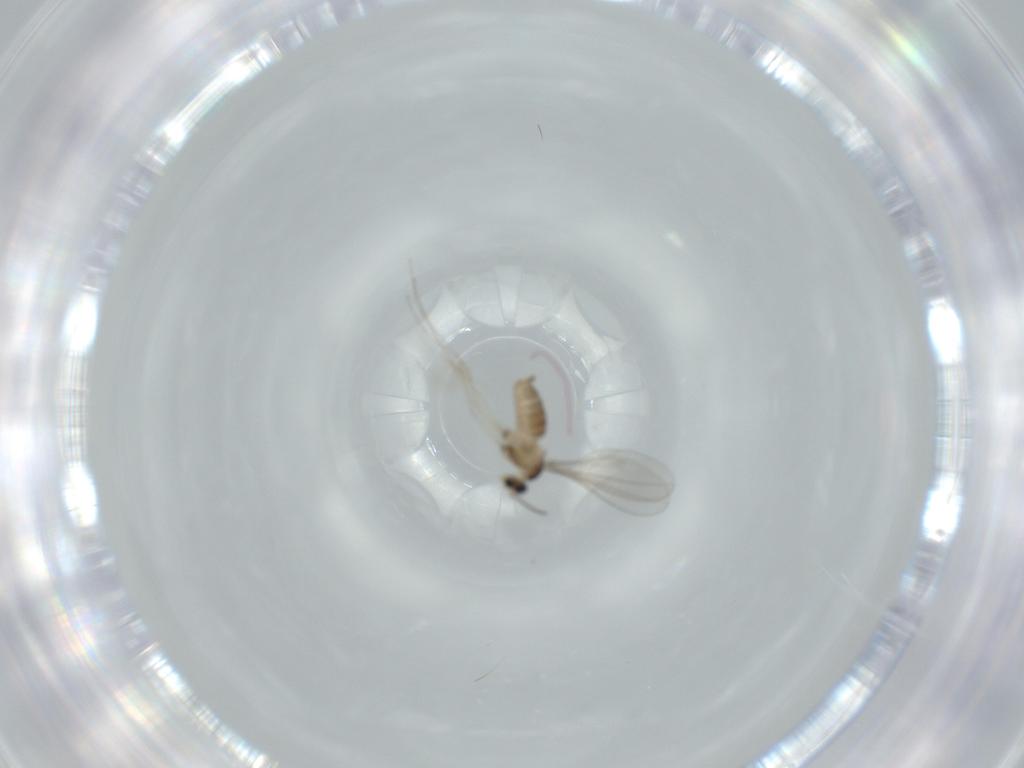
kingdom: Animalia
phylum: Arthropoda
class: Insecta
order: Diptera
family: Cecidomyiidae
